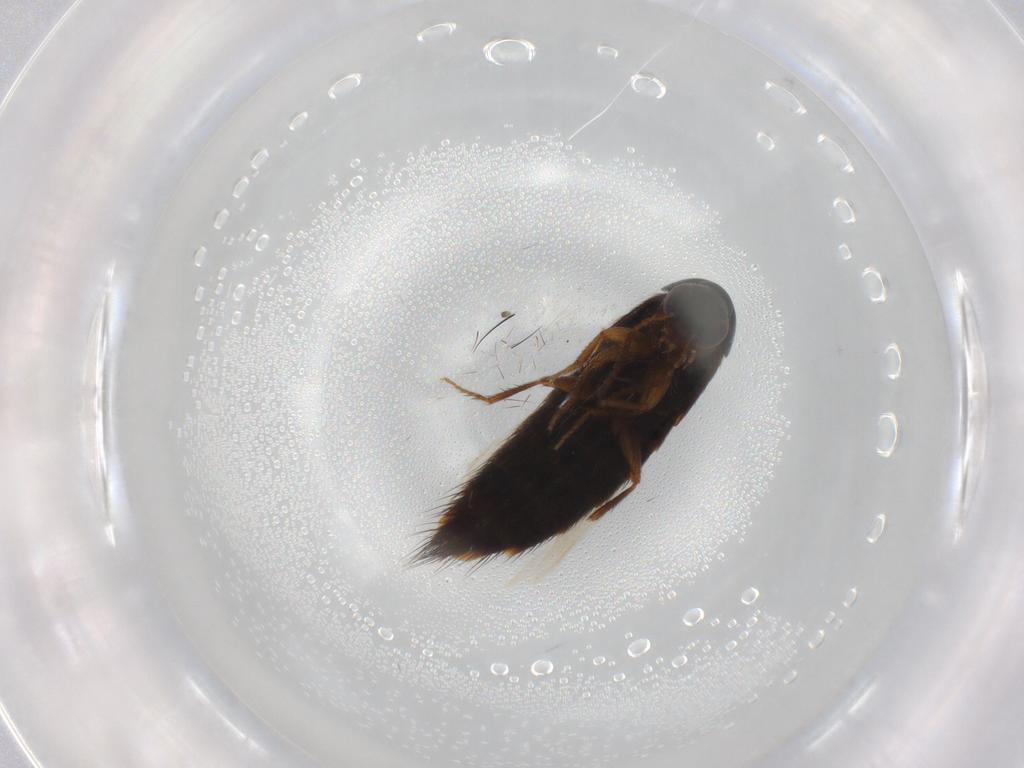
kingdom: Animalia
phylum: Arthropoda
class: Insecta
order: Coleoptera
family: Staphylinidae
